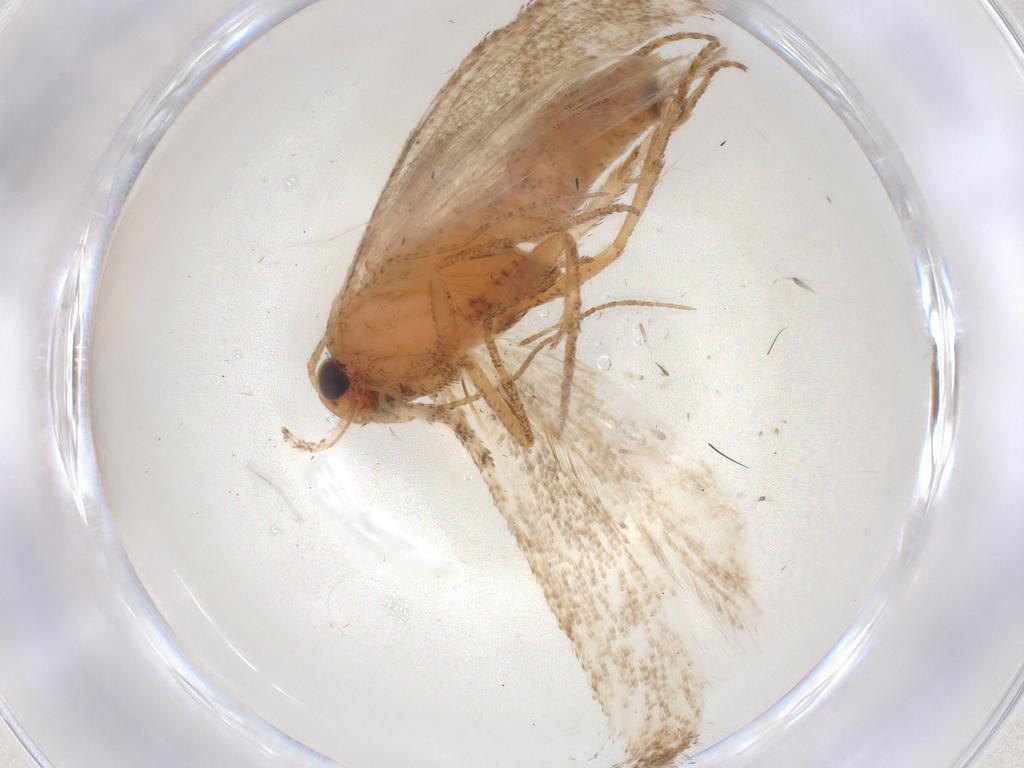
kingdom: Animalia
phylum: Arthropoda
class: Insecta
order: Lepidoptera
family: Crambidae
